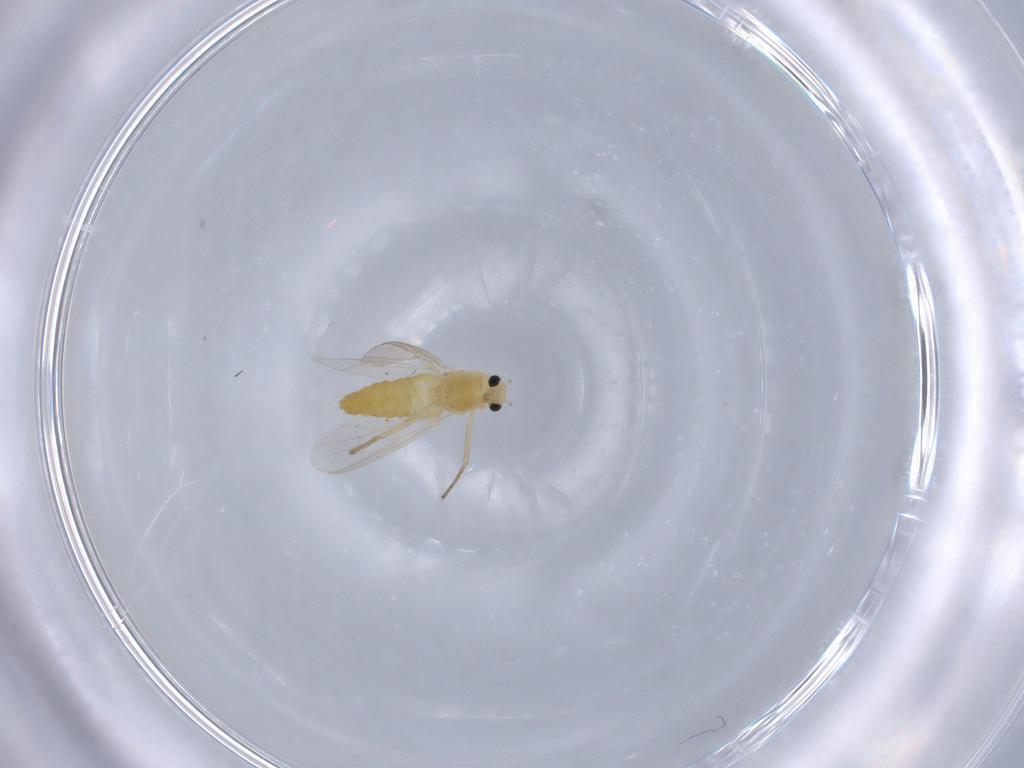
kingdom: Animalia
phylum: Arthropoda
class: Insecta
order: Diptera
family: Chironomidae
